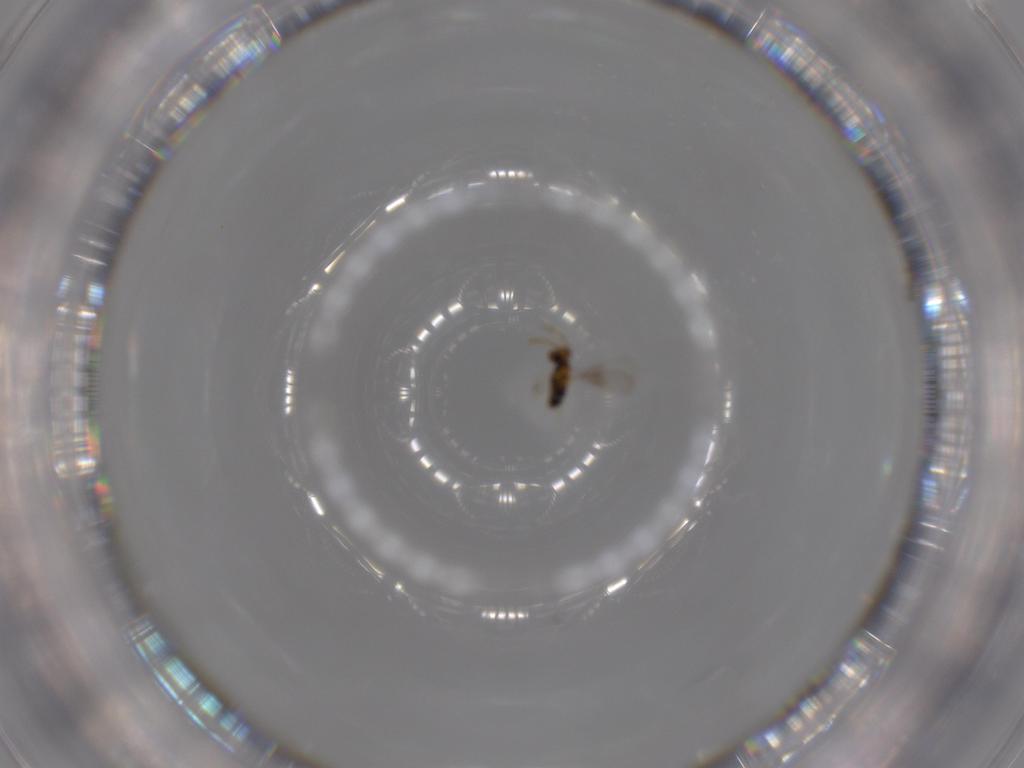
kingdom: Animalia
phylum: Arthropoda
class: Insecta
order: Hymenoptera
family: Aphelinidae
